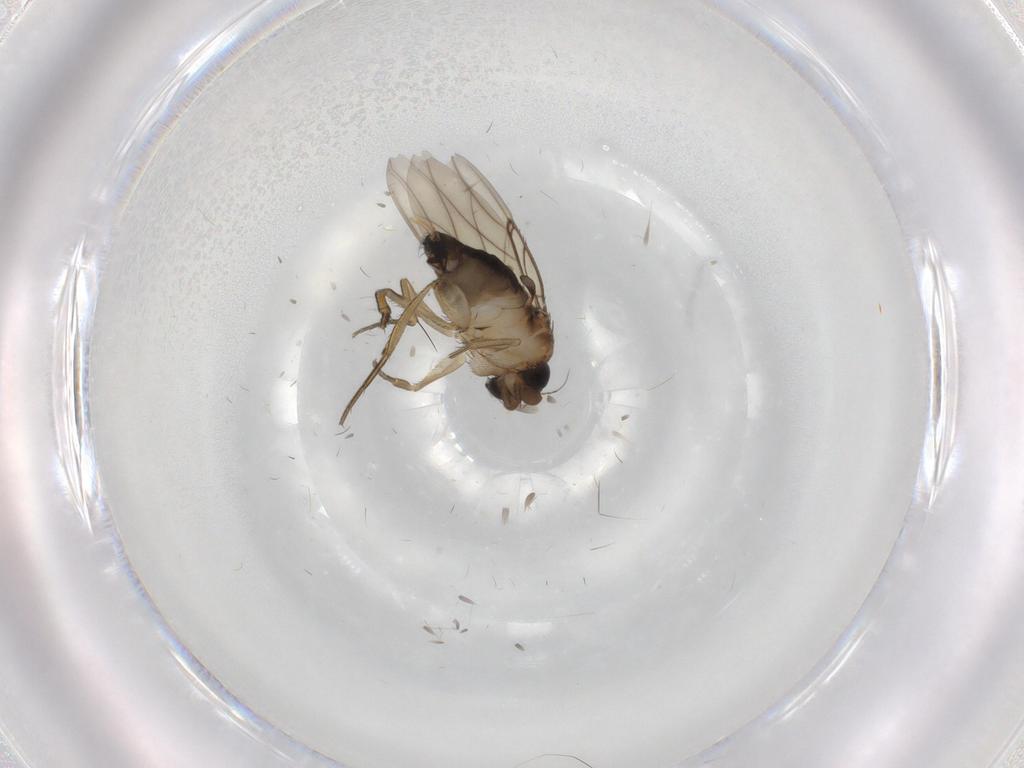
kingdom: Animalia
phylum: Arthropoda
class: Insecta
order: Diptera
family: Phoridae
